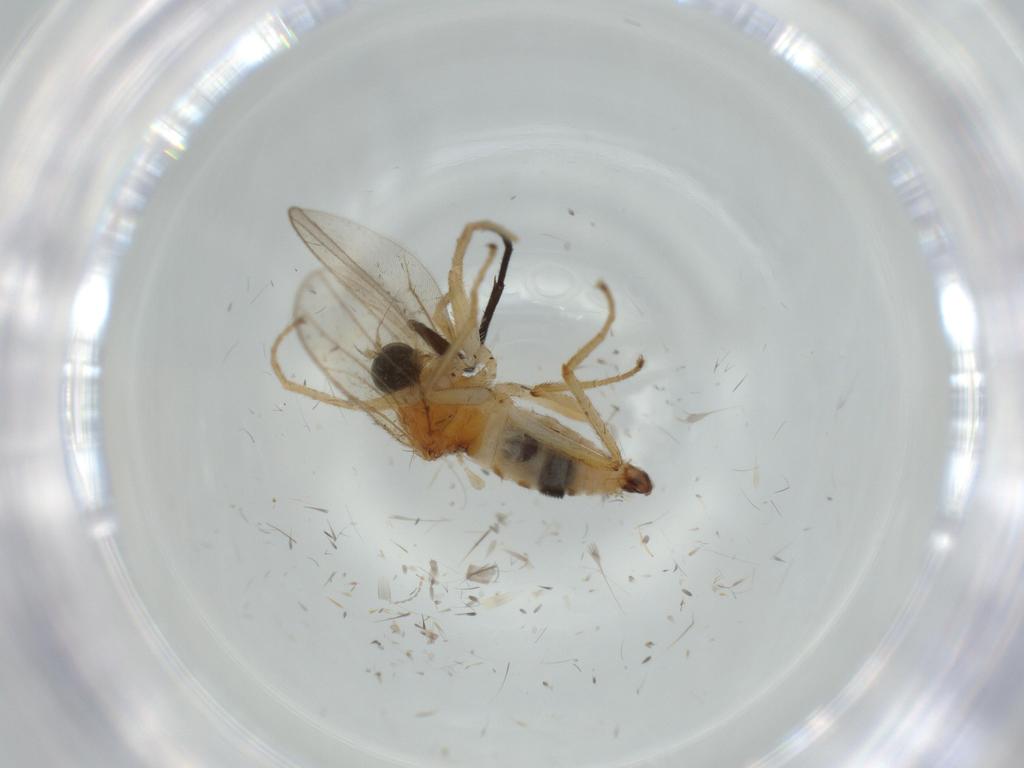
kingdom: Animalia
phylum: Arthropoda
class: Insecta
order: Diptera
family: Hybotidae
